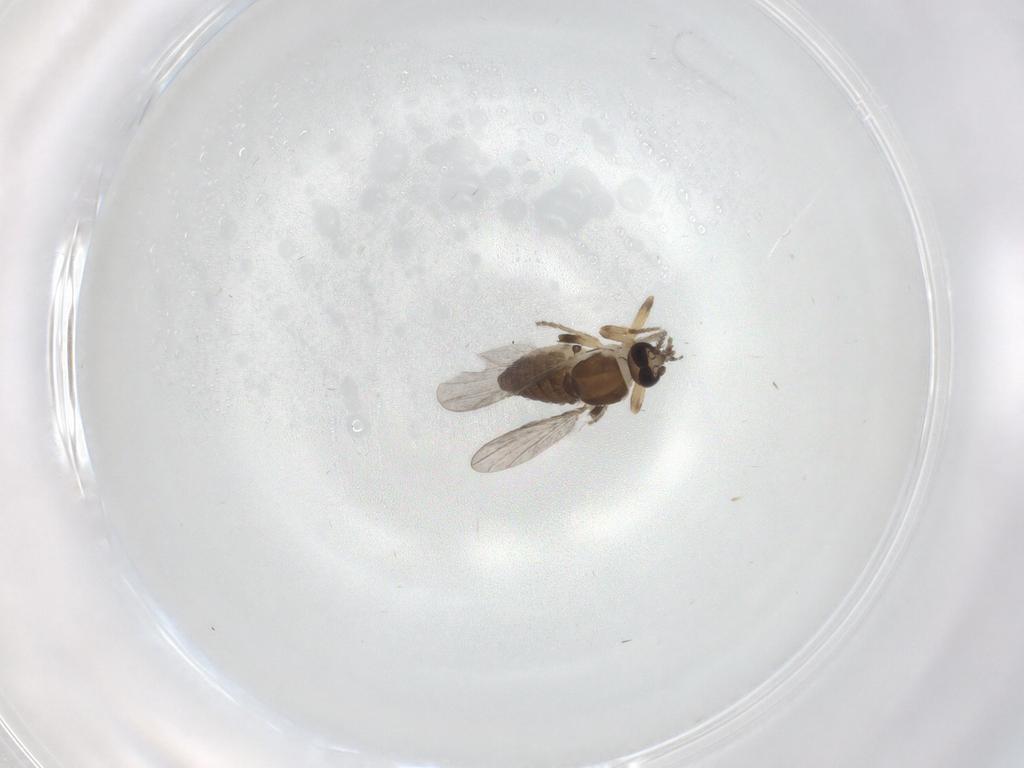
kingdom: Animalia
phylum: Arthropoda
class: Insecta
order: Diptera
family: Ceratopogonidae
